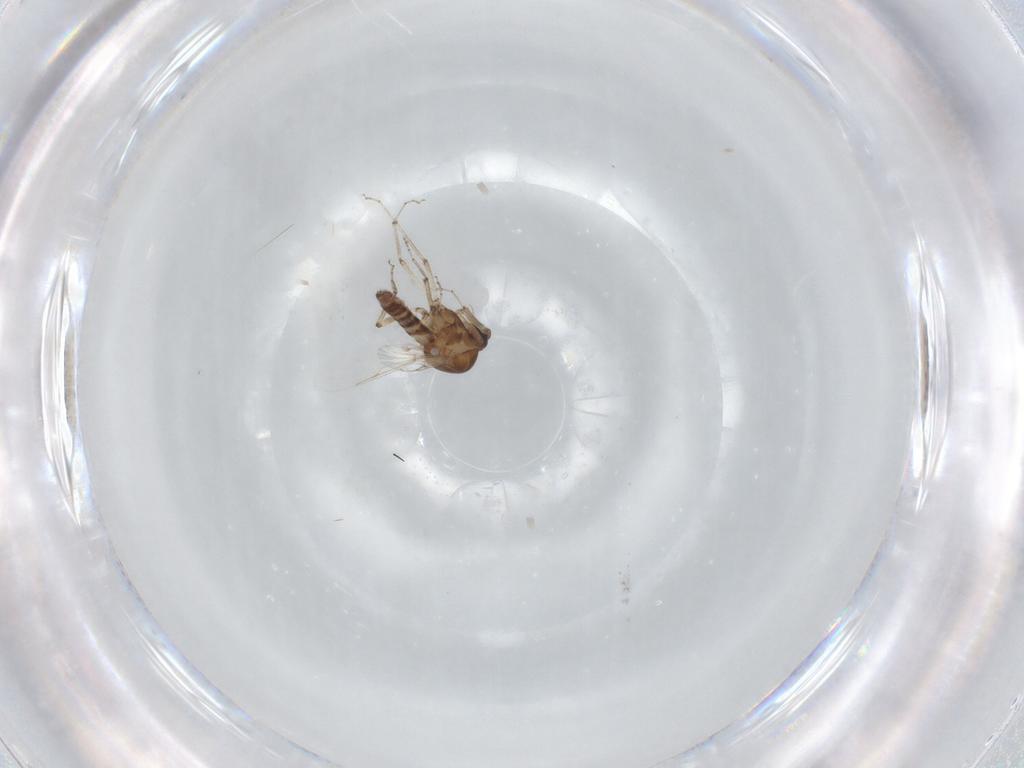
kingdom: Animalia
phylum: Arthropoda
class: Insecta
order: Diptera
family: Ceratopogonidae
